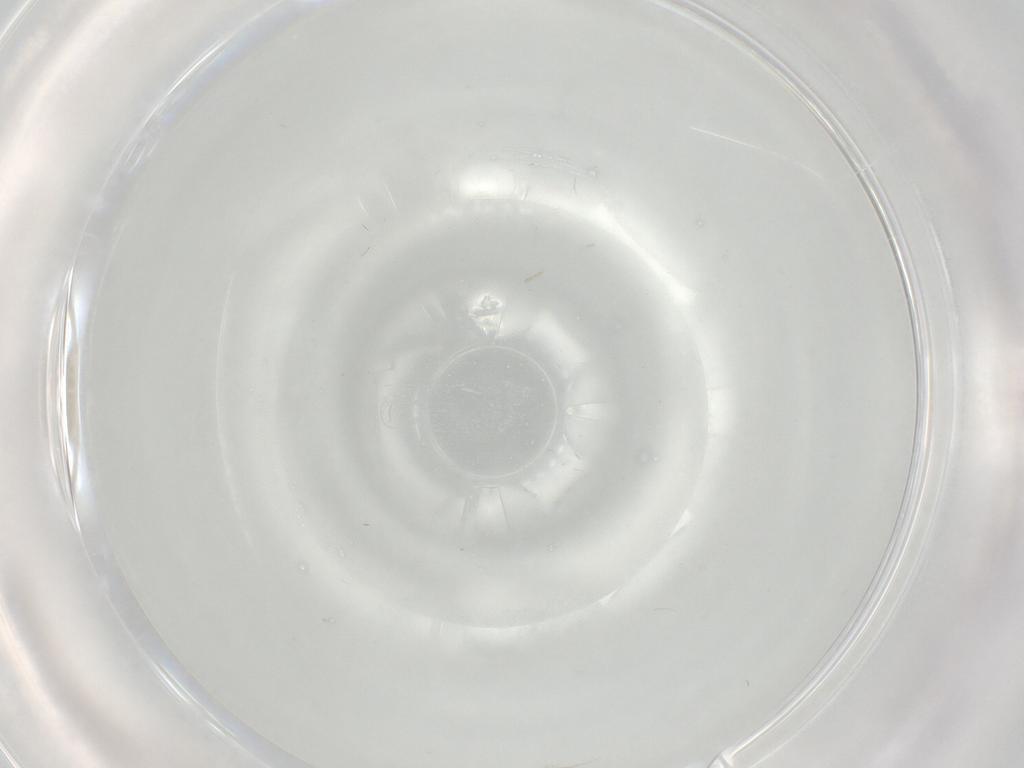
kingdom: Animalia
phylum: Arthropoda
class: Insecta
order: Diptera
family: Cecidomyiidae
